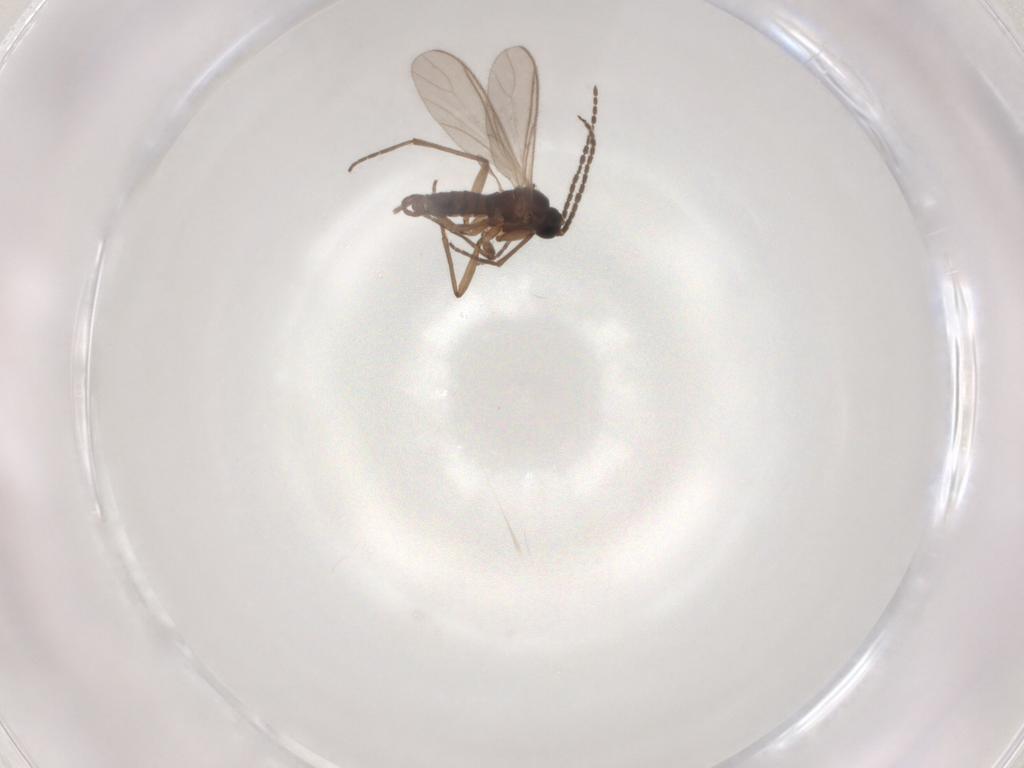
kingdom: Animalia
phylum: Arthropoda
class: Insecta
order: Diptera
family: Sciaridae
